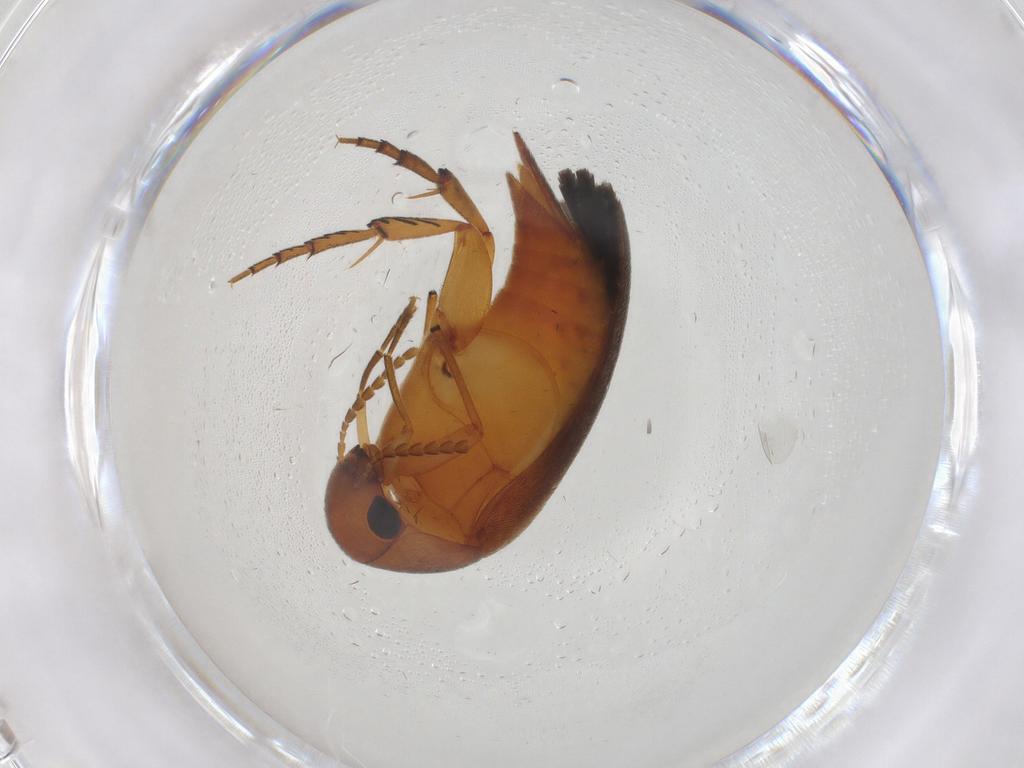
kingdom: Animalia
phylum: Arthropoda
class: Insecta
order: Coleoptera
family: Mordellidae
